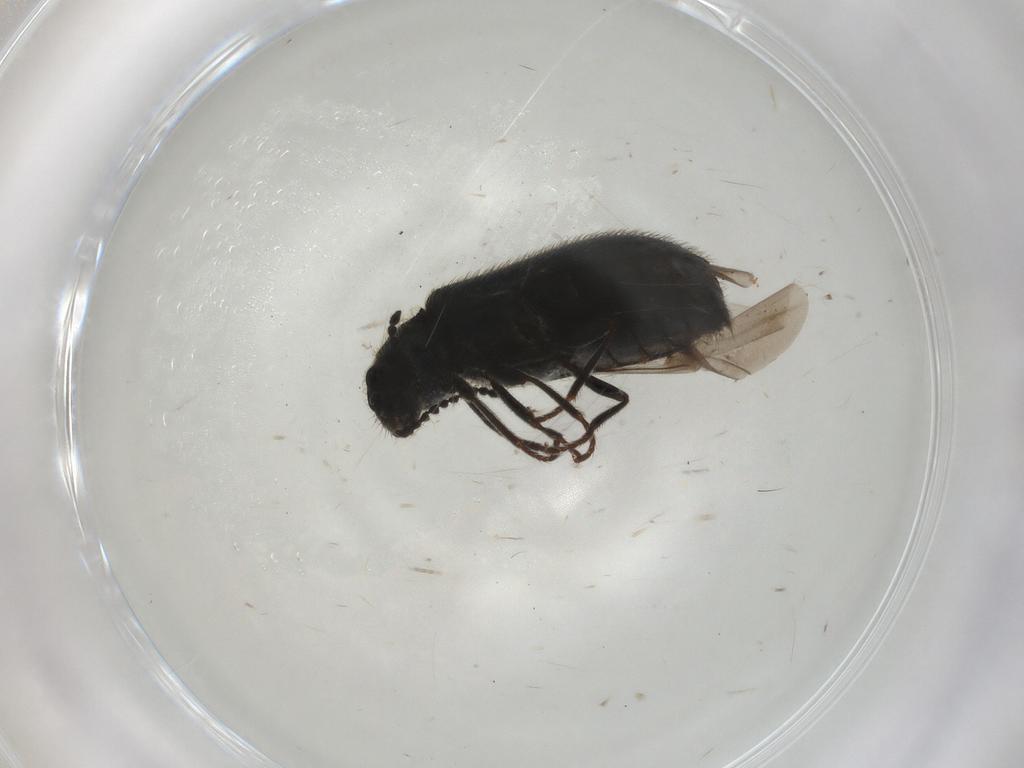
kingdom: Animalia
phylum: Arthropoda
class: Insecta
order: Coleoptera
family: Melyridae
